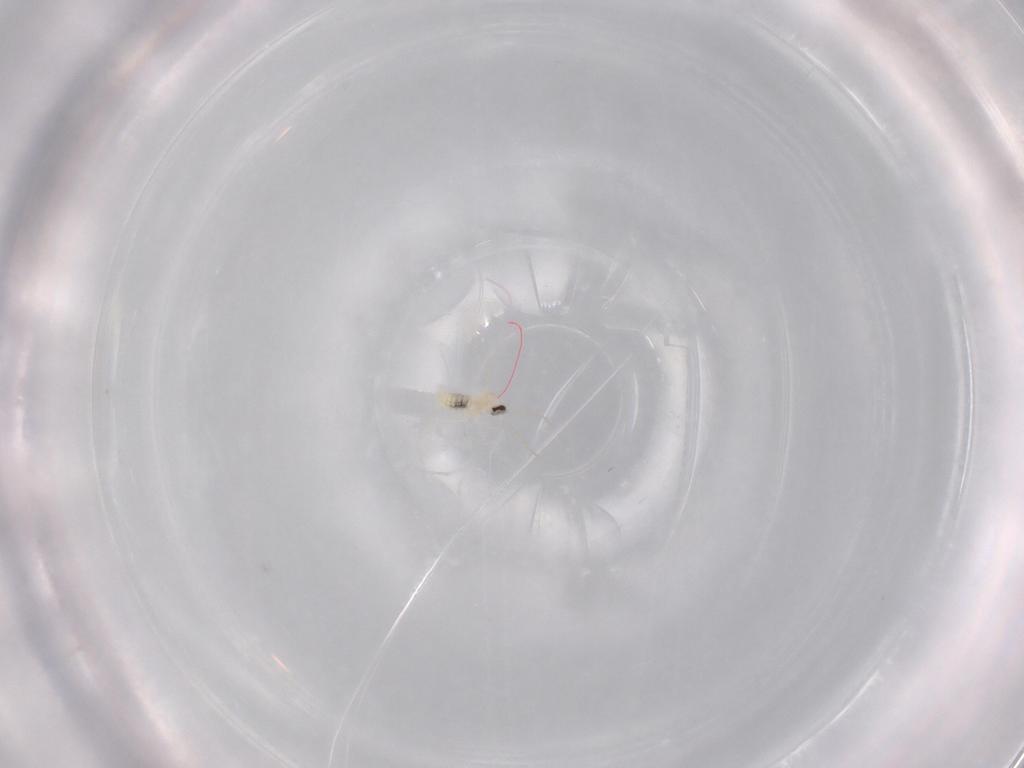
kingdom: Animalia
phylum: Arthropoda
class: Insecta
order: Diptera
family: Cecidomyiidae
